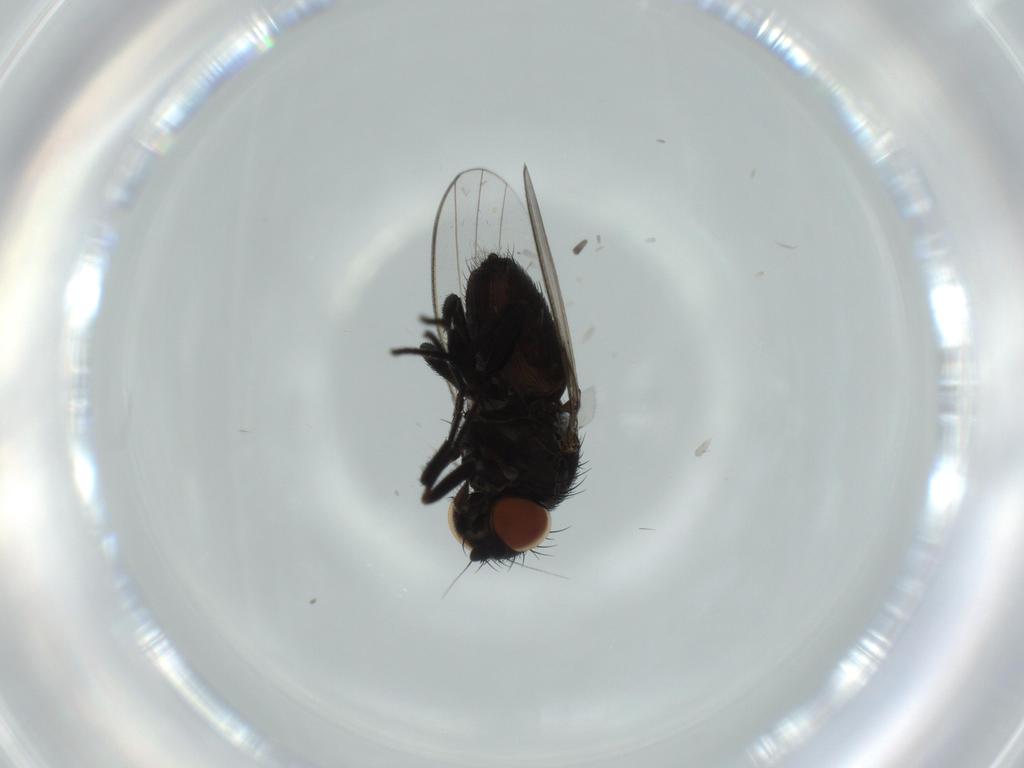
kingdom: Animalia
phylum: Arthropoda
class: Insecta
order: Diptera
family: Milichiidae
